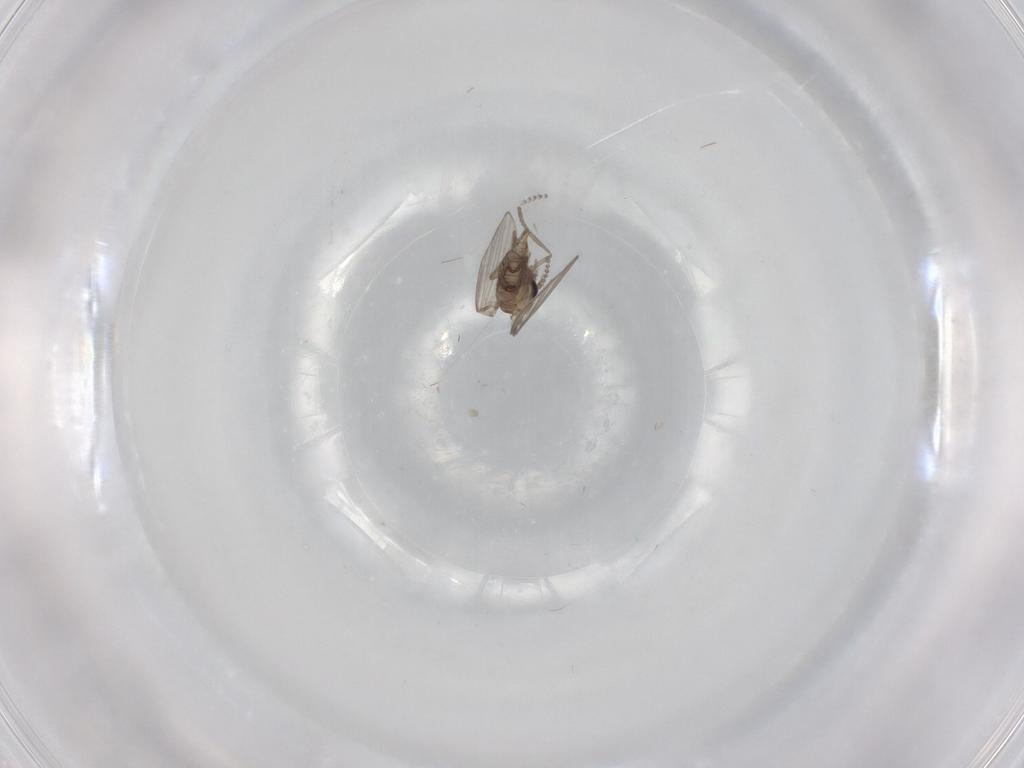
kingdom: Animalia
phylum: Arthropoda
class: Insecta
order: Diptera
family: Psychodidae
